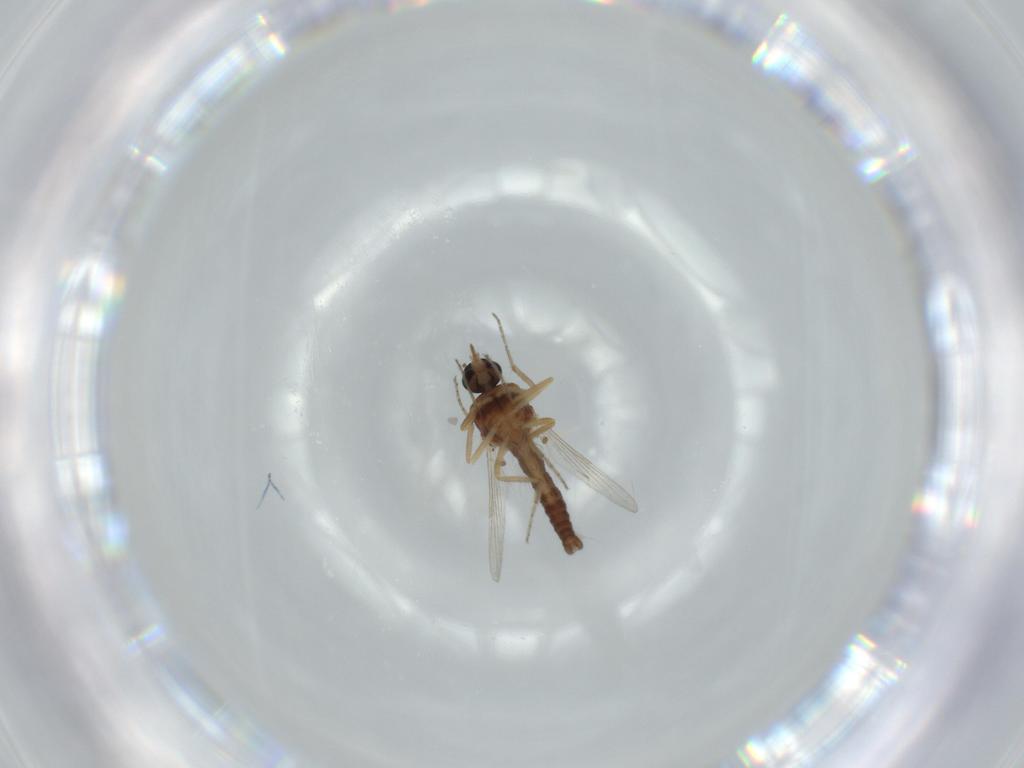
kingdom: Animalia
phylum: Arthropoda
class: Insecta
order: Diptera
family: Ceratopogonidae
